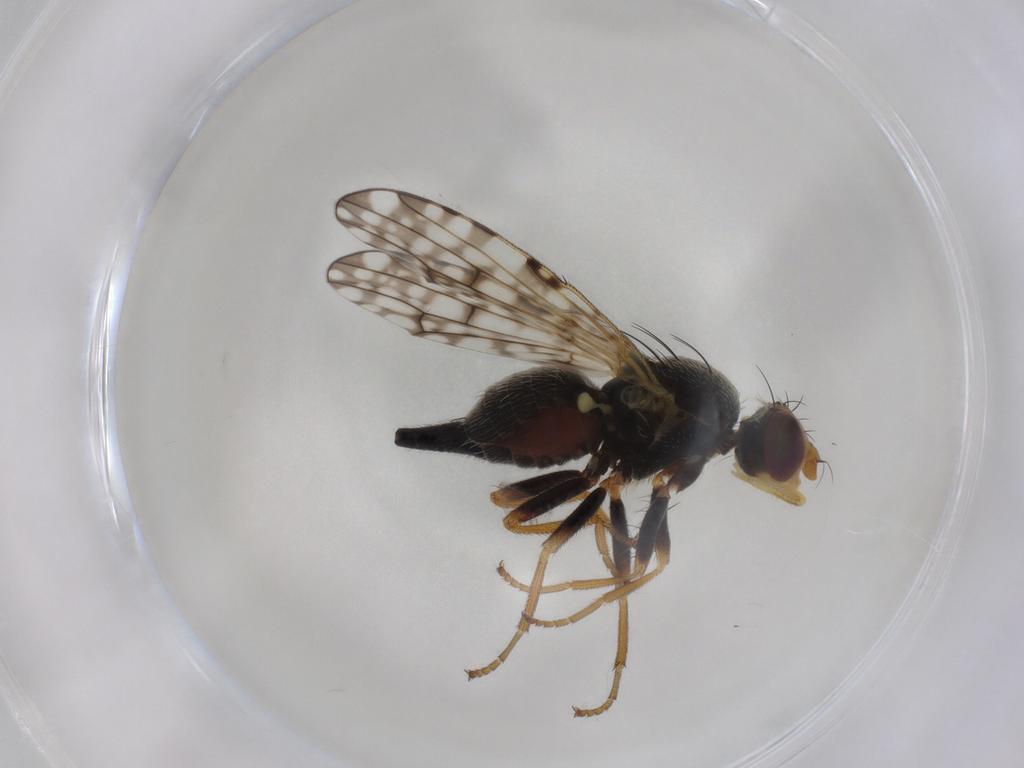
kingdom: Animalia
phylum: Arthropoda
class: Insecta
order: Diptera
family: Tephritidae
